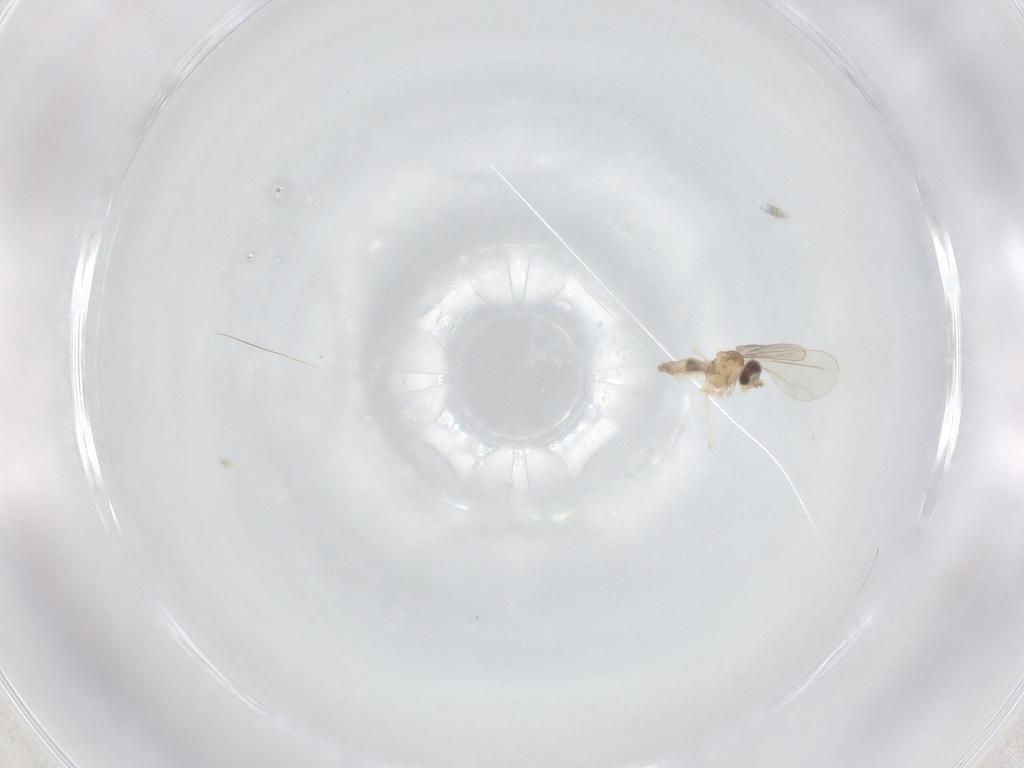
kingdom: Animalia
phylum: Arthropoda
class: Insecta
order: Diptera
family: Cecidomyiidae
